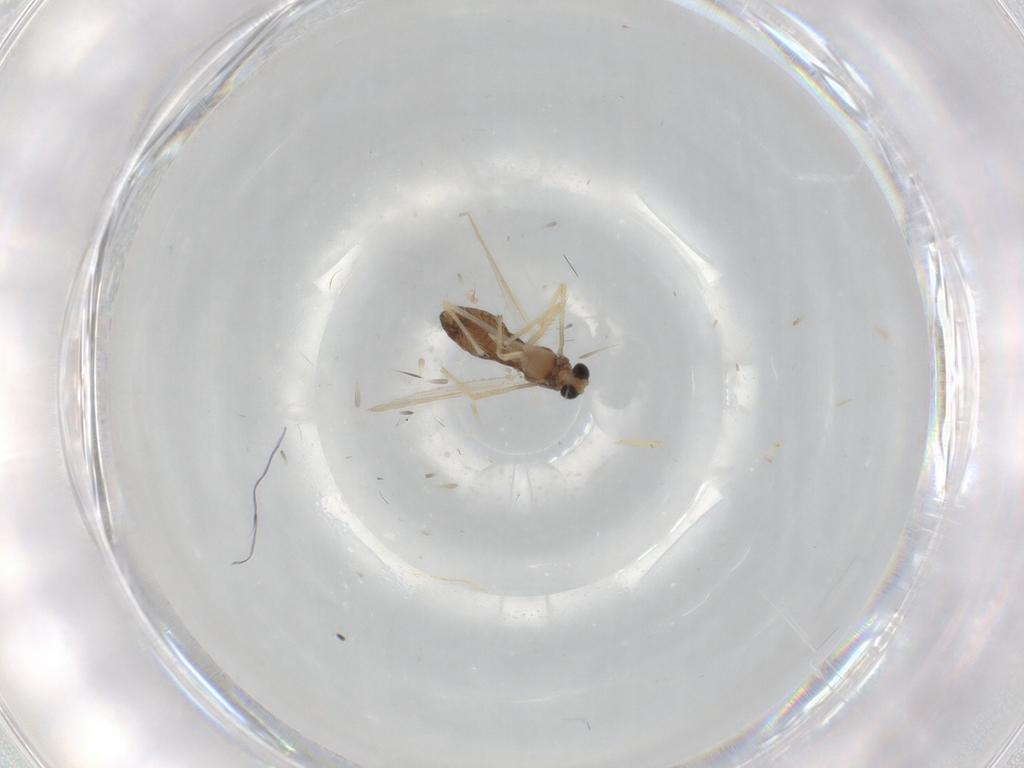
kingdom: Animalia
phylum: Arthropoda
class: Insecta
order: Diptera
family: Chironomidae
